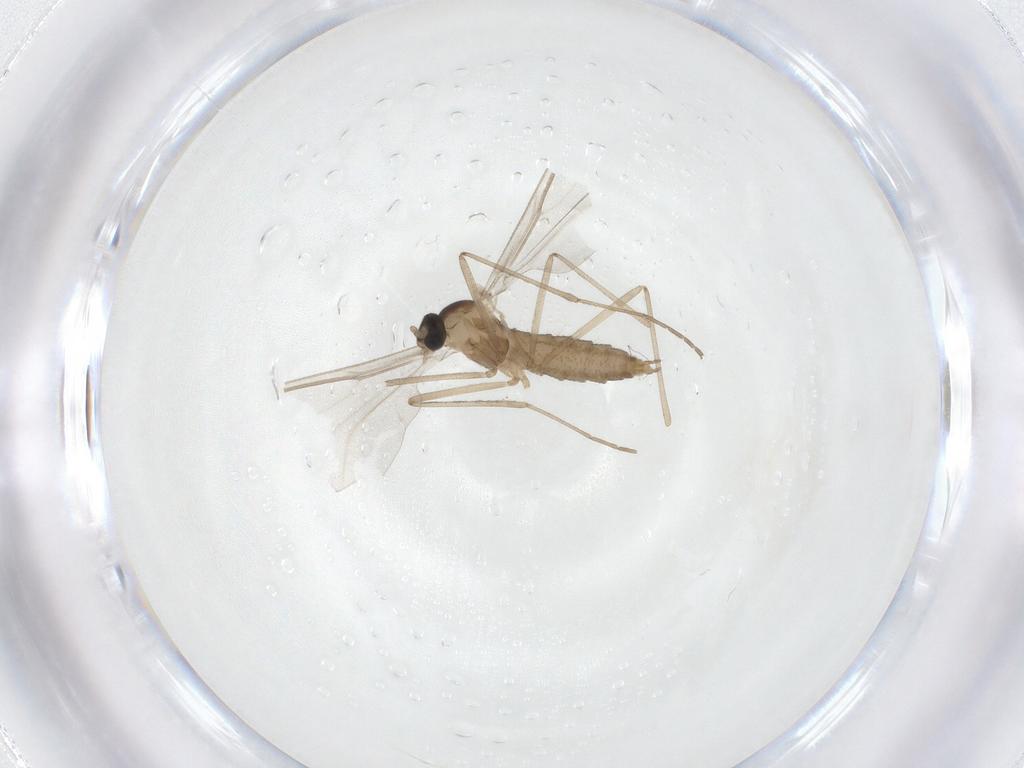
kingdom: Animalia
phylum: Arthropoda
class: Insecta
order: Diptera
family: Cecidomyiidae
